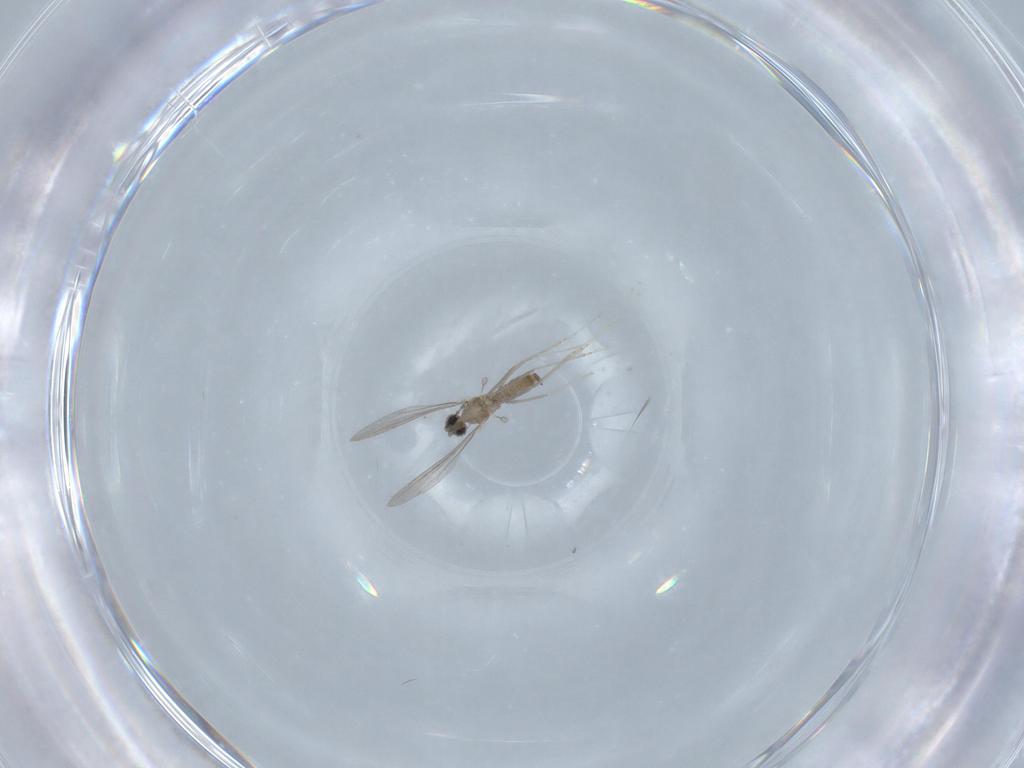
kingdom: Animalia
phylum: Arthropoda
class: Insecta
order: Diptera
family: Cecidomyiidae
